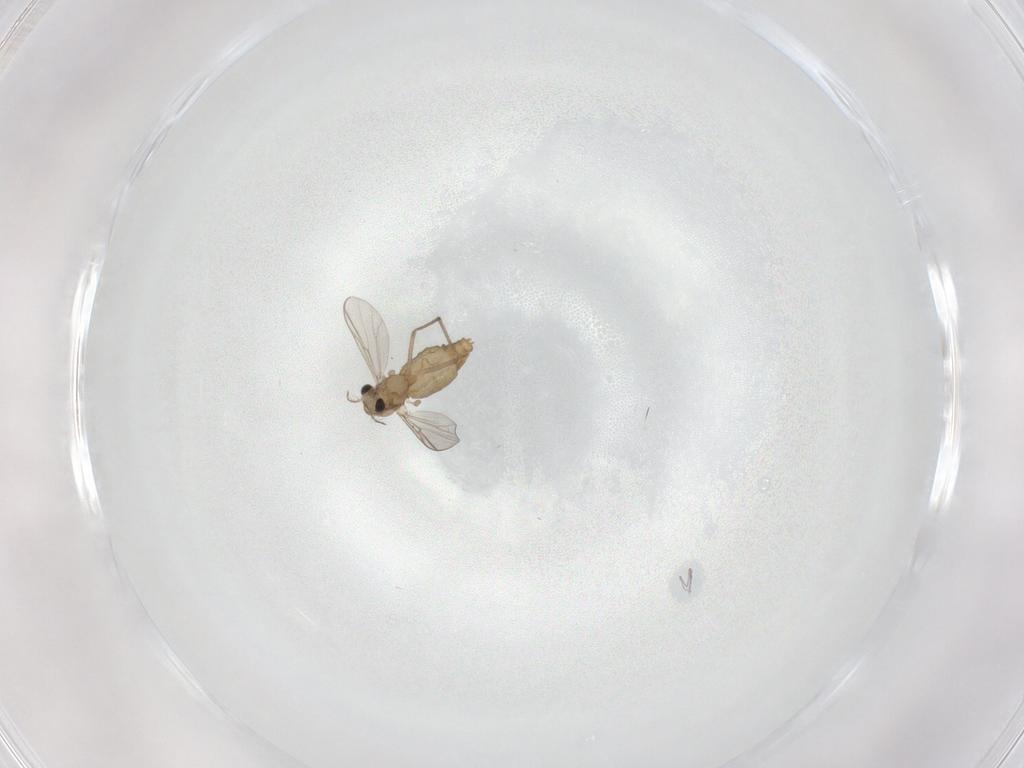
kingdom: Animalia
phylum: Arthropoda
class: Insecta
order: Diptera
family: Chironomidae
